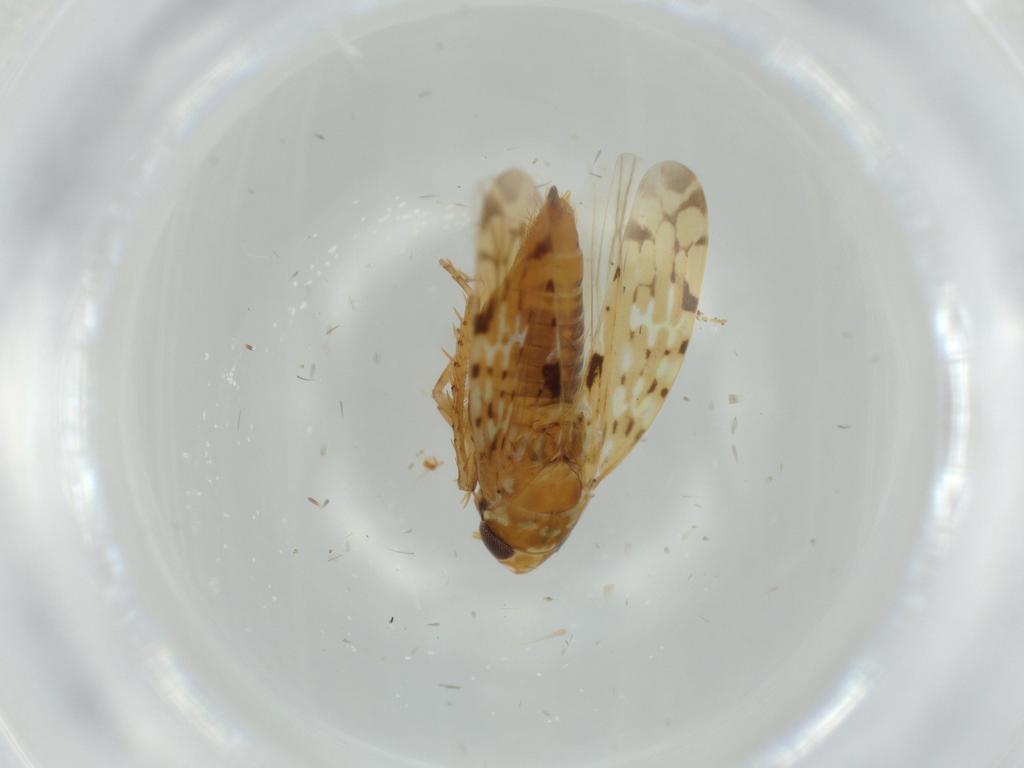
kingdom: Animalia
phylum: Arthropoda
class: Insecta
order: Hemiptera
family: Cicadellidae
